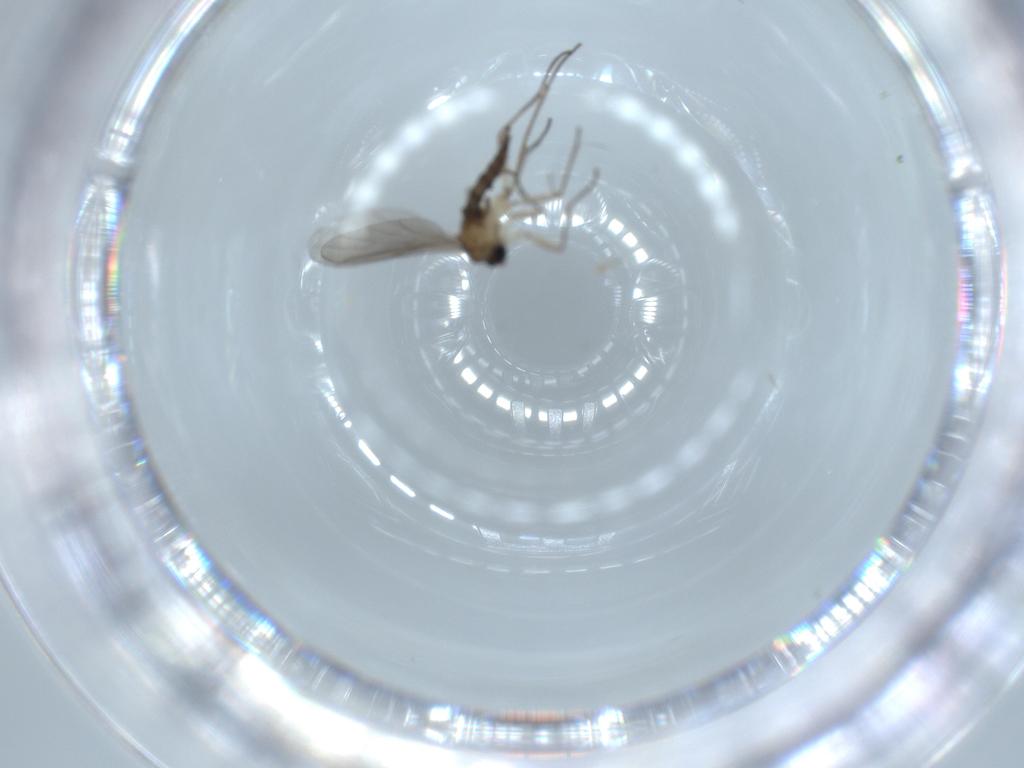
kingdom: Animalia
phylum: Arthropoda
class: Insecta
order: Diptera
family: Sciaridae
